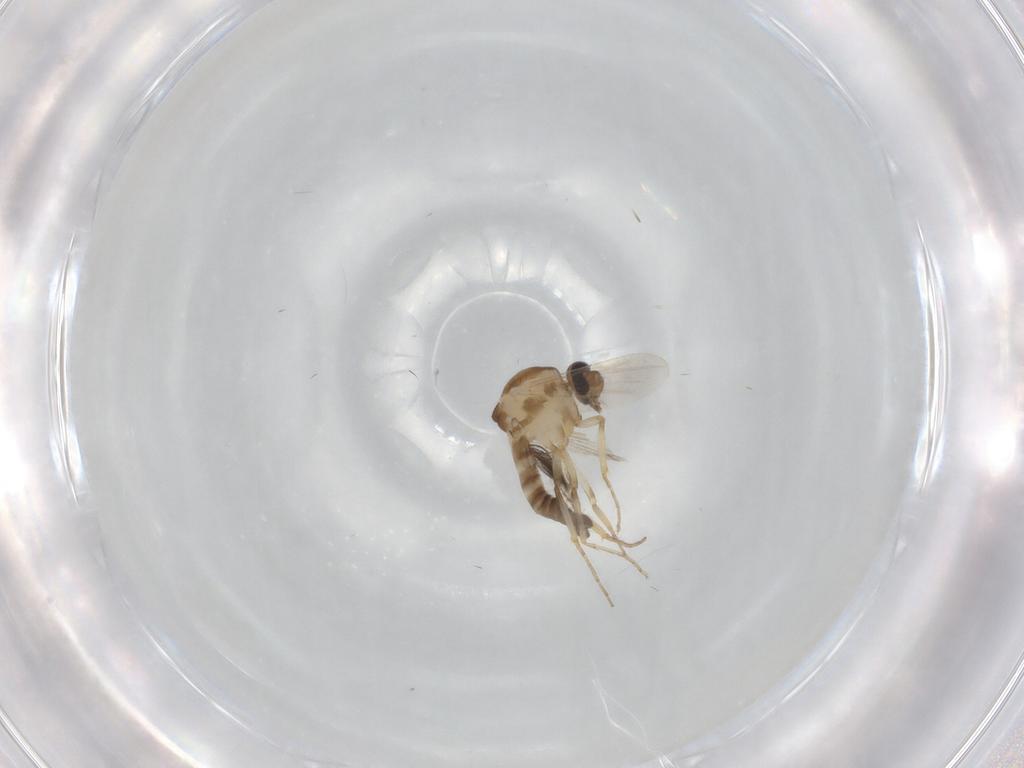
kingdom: Animalia
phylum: Arthropoda
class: Insecta
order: Diptera
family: Ceratopogonidae
